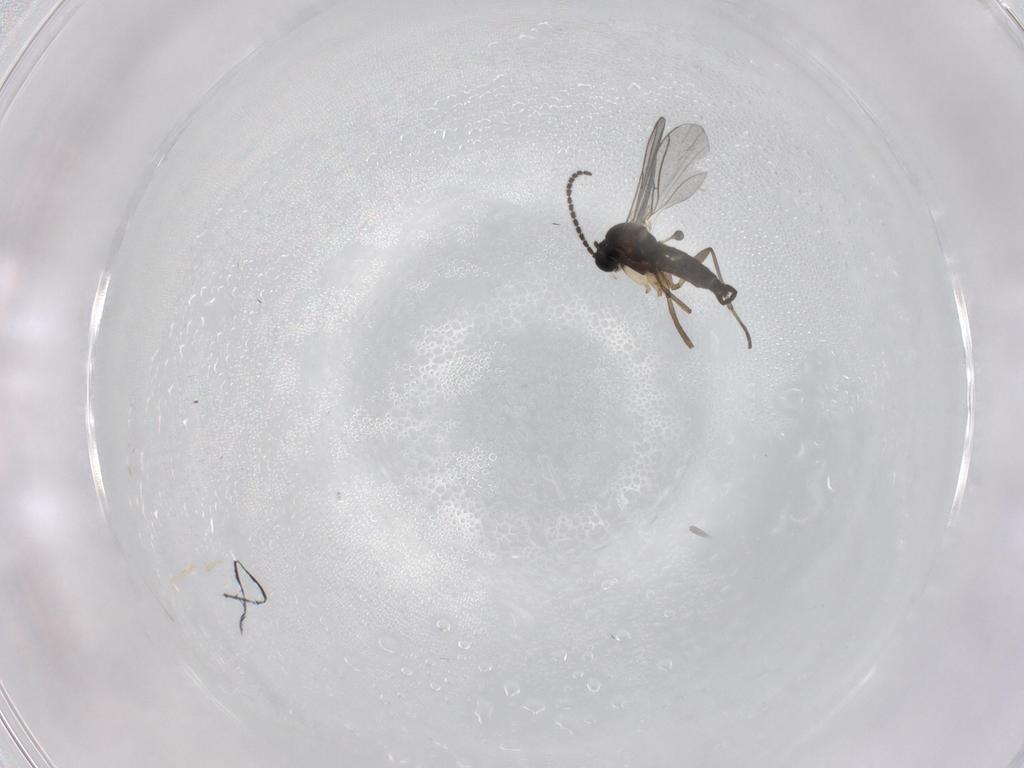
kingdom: Animalia
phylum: Arthropoda
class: Insecta
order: Diptera
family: Sciaridae
